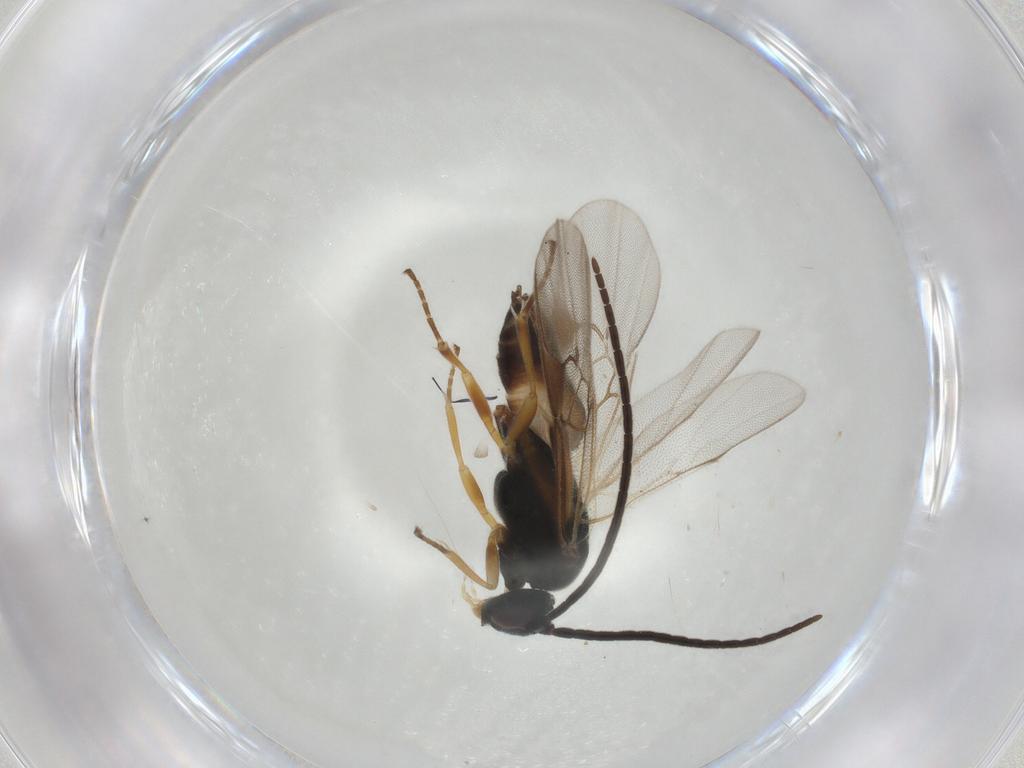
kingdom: Animalia
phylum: Arthropoda
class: Insecta
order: Hymenoptera
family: Braconidae
